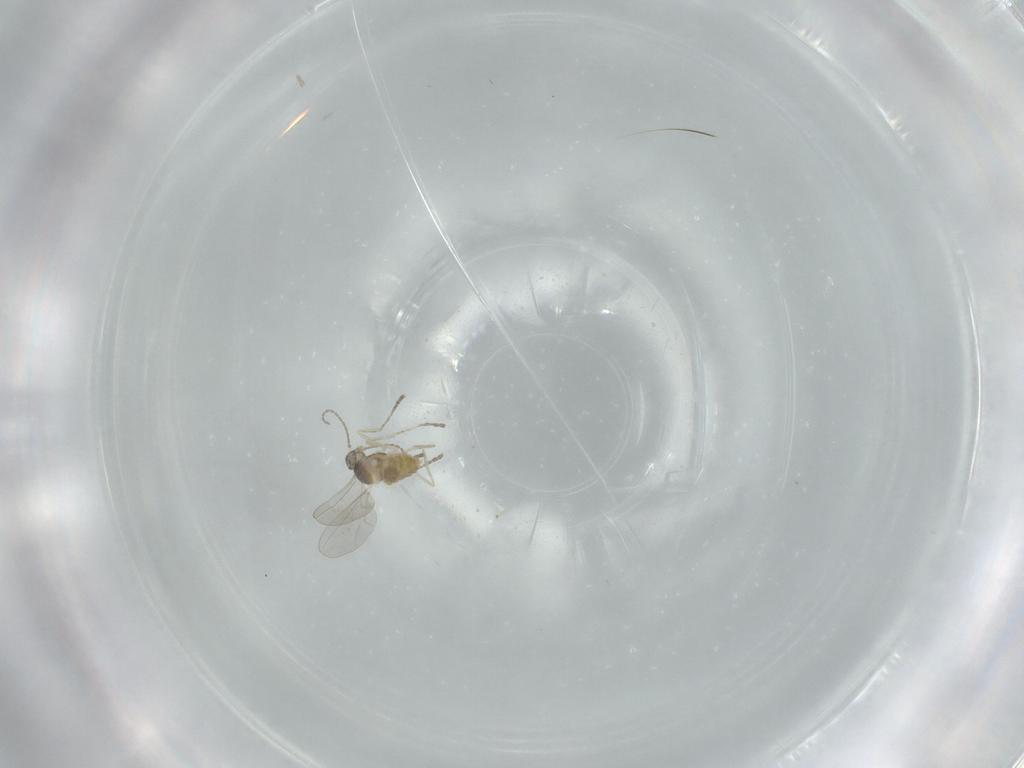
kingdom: Animalia
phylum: Arthropoda
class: Insecta
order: Diptera
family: Cecidomyiidae
